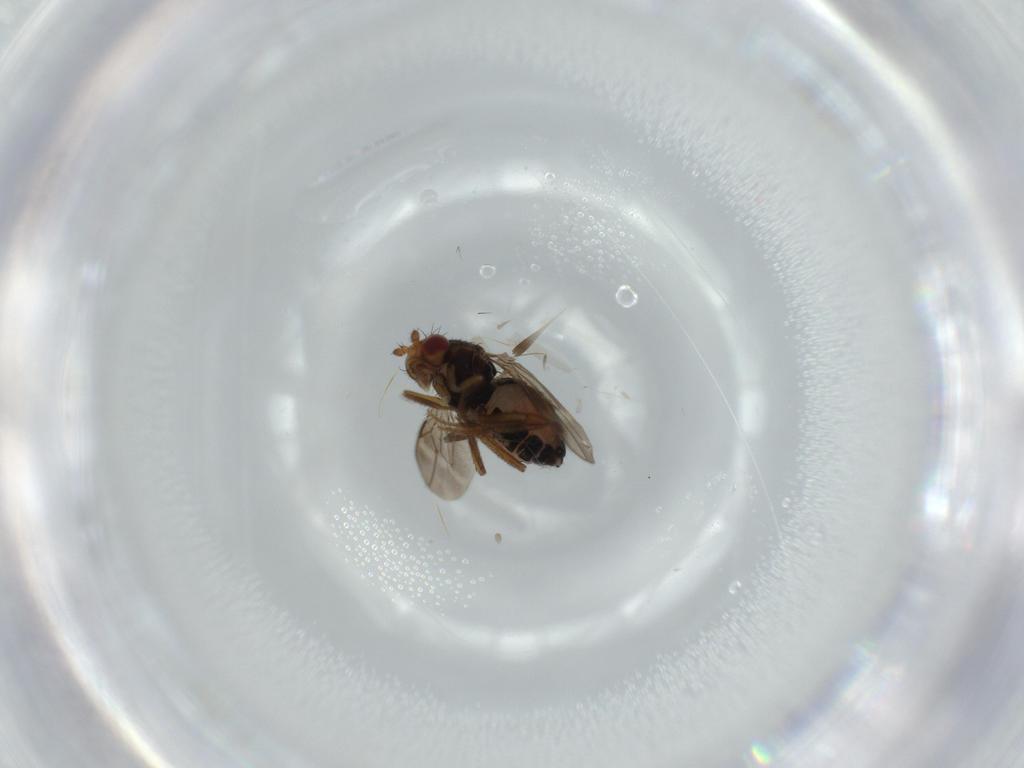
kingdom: Animalia
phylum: Arthropoda
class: Insecta
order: Diptera
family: Sphaeroceridae
